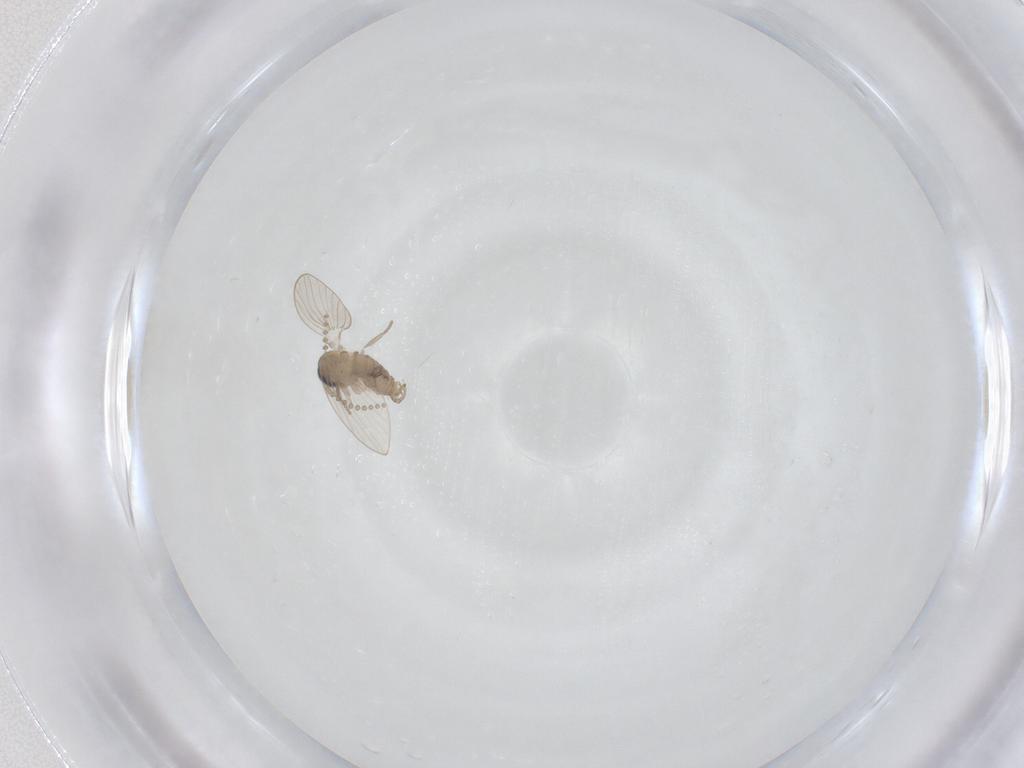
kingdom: Animalia
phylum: Arthropoda
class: Insecta
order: Diptera
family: Psychodidae
